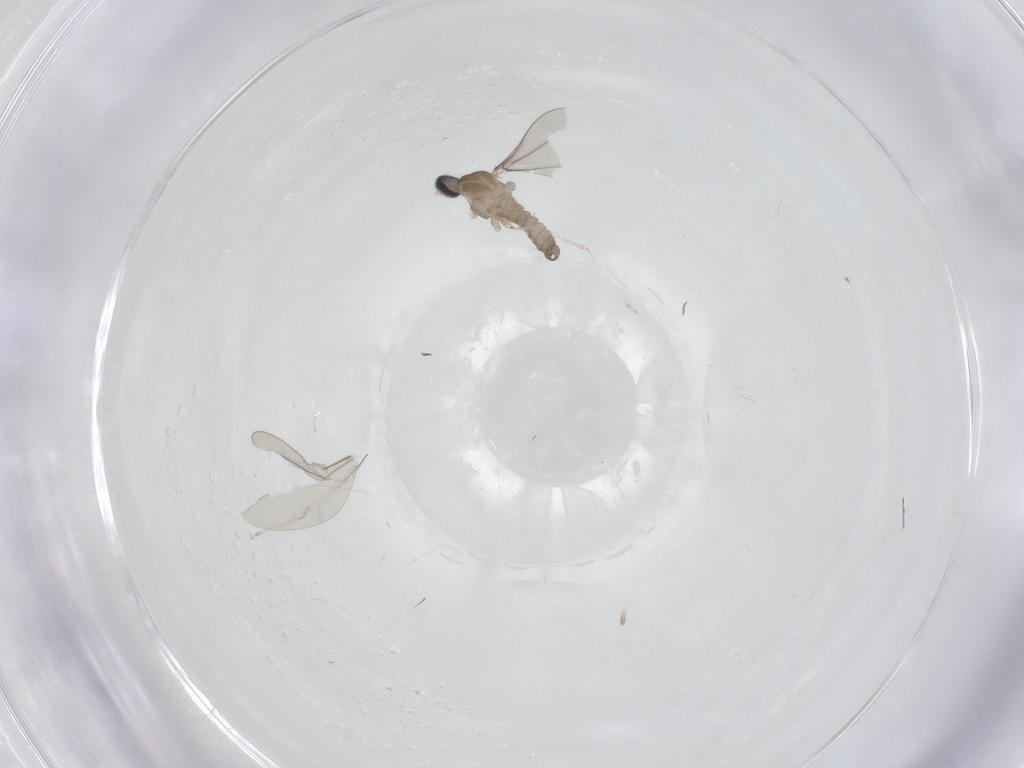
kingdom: Animalia
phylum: Arthropoda
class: Insecta
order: Diptera
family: Cecidomyiidae
